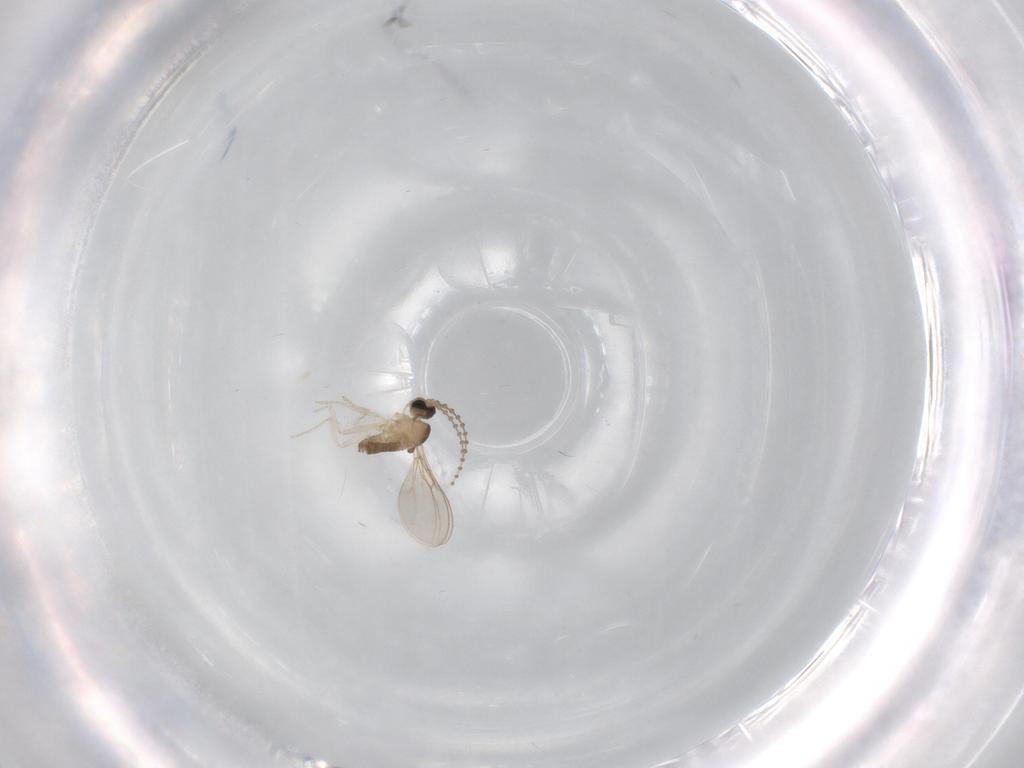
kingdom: Animalia
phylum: Arthropoda
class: Insecta
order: Diptera
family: Cecidomyiidae
